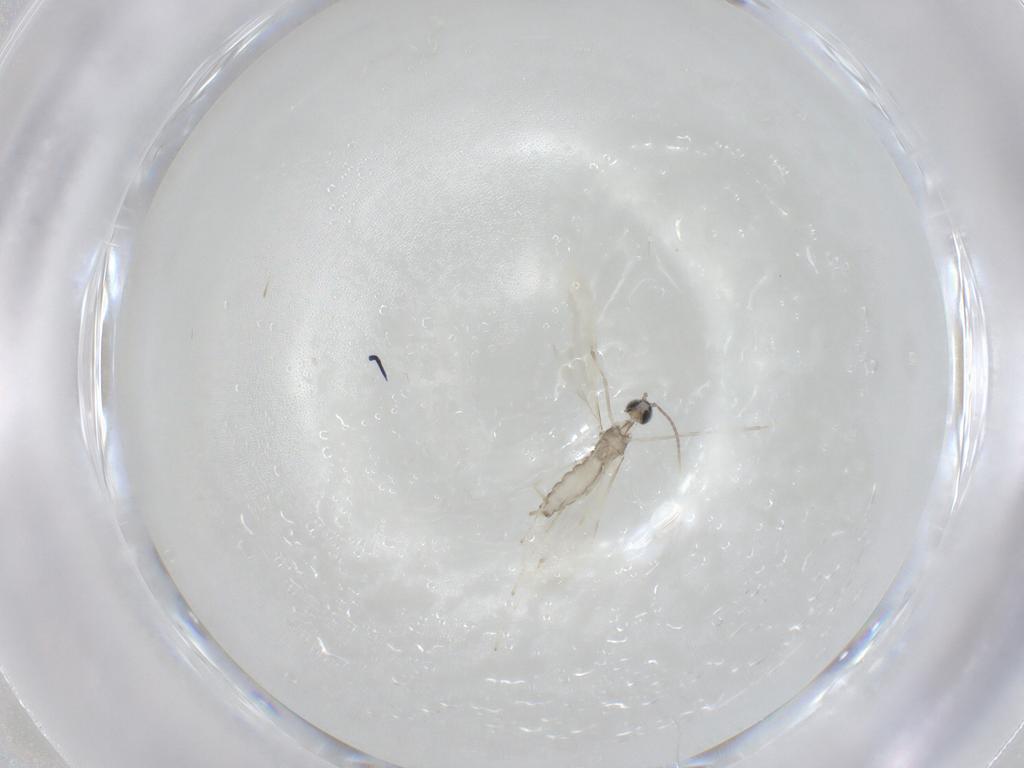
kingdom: Animalia
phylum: Arthropoda
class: Insecta
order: Diptera
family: Cecidomyiidae
